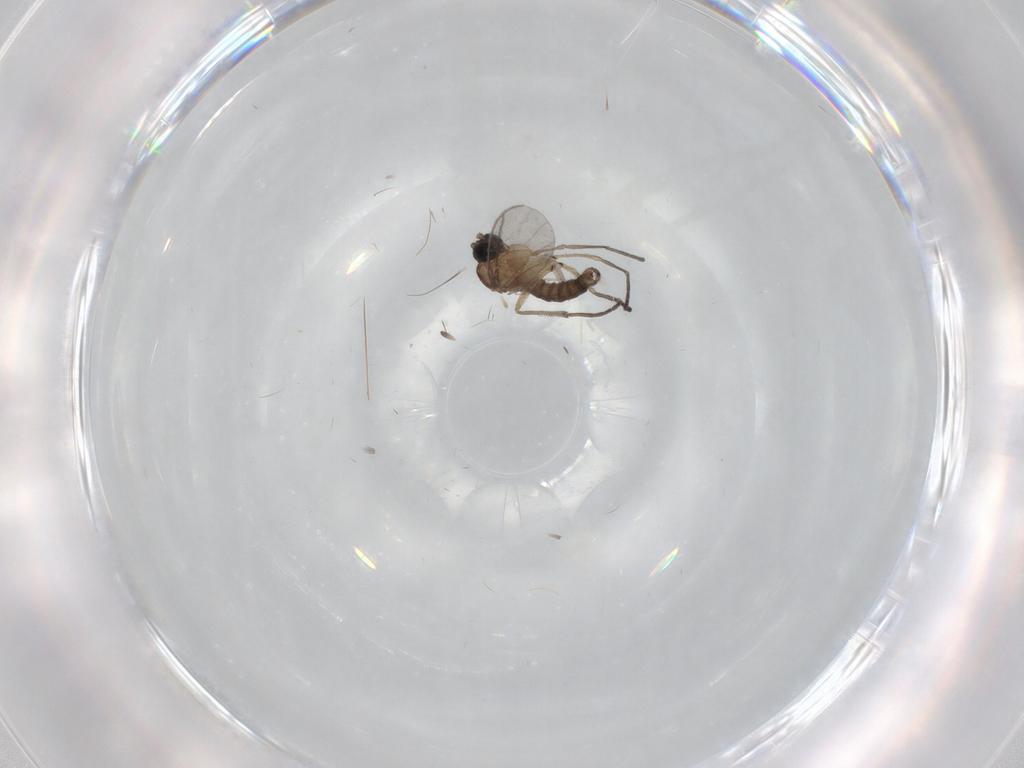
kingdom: Animalia
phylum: Arthropoda
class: Insecta
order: Diptera
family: Sciaridae
